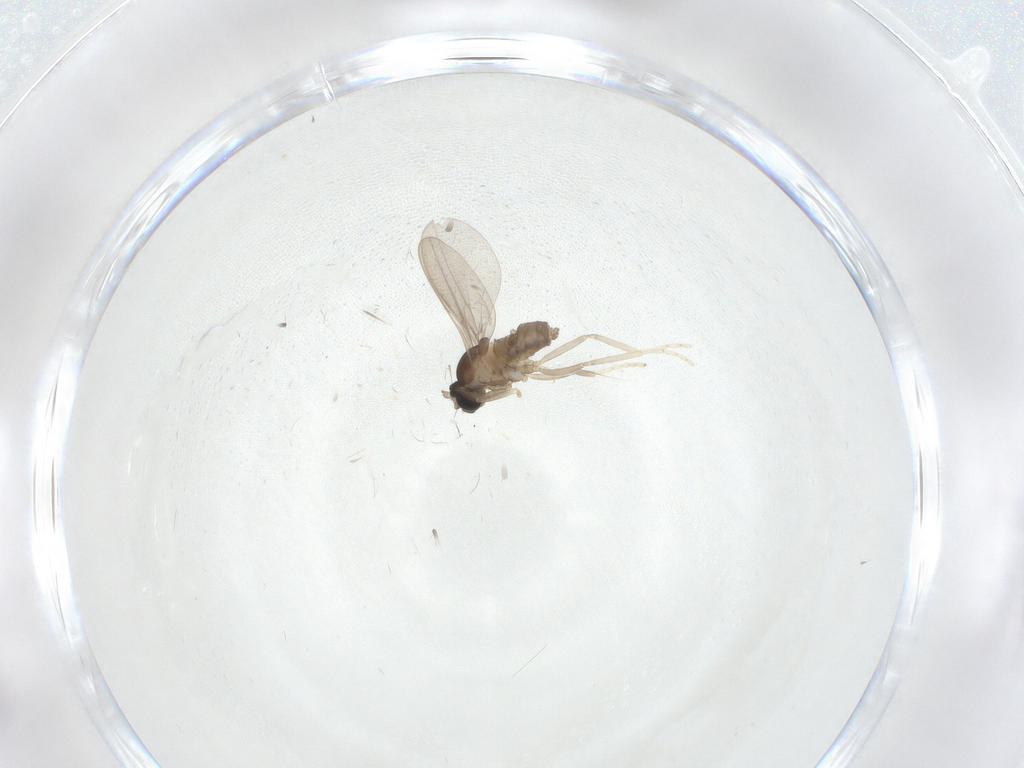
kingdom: Animalia
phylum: Arthropoda
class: Insecta
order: Diptera
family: Cecidomyiidae
